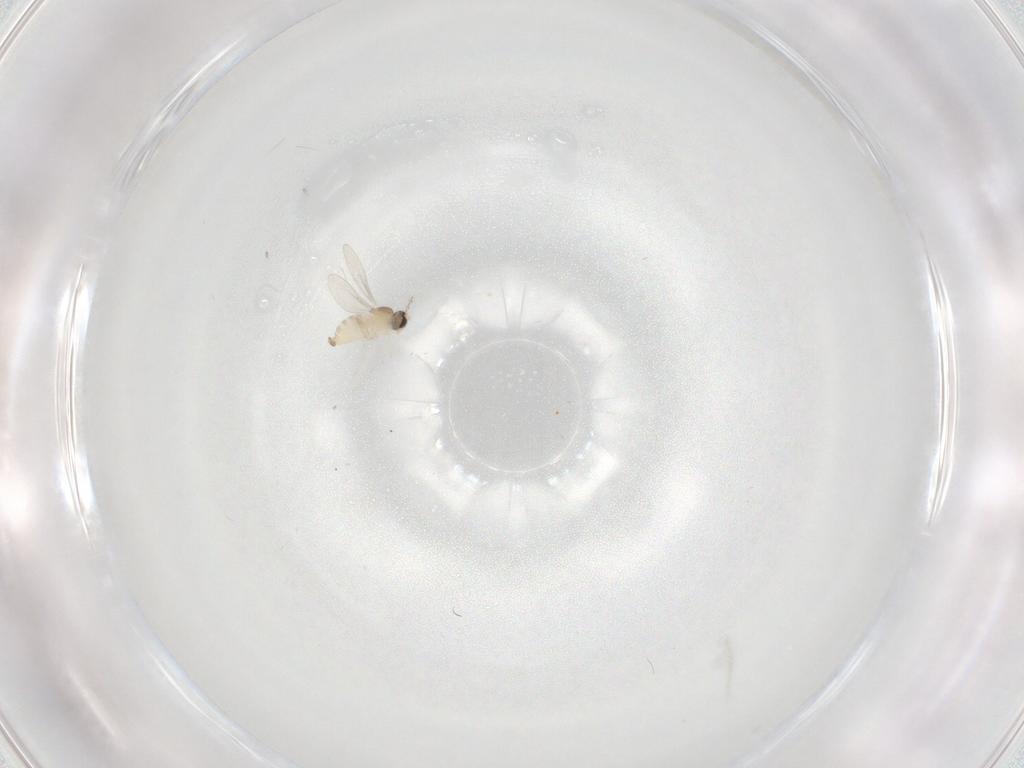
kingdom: Animalia
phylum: Arthropoda
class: Insecta
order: Diptera
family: Cecidomyiidae
